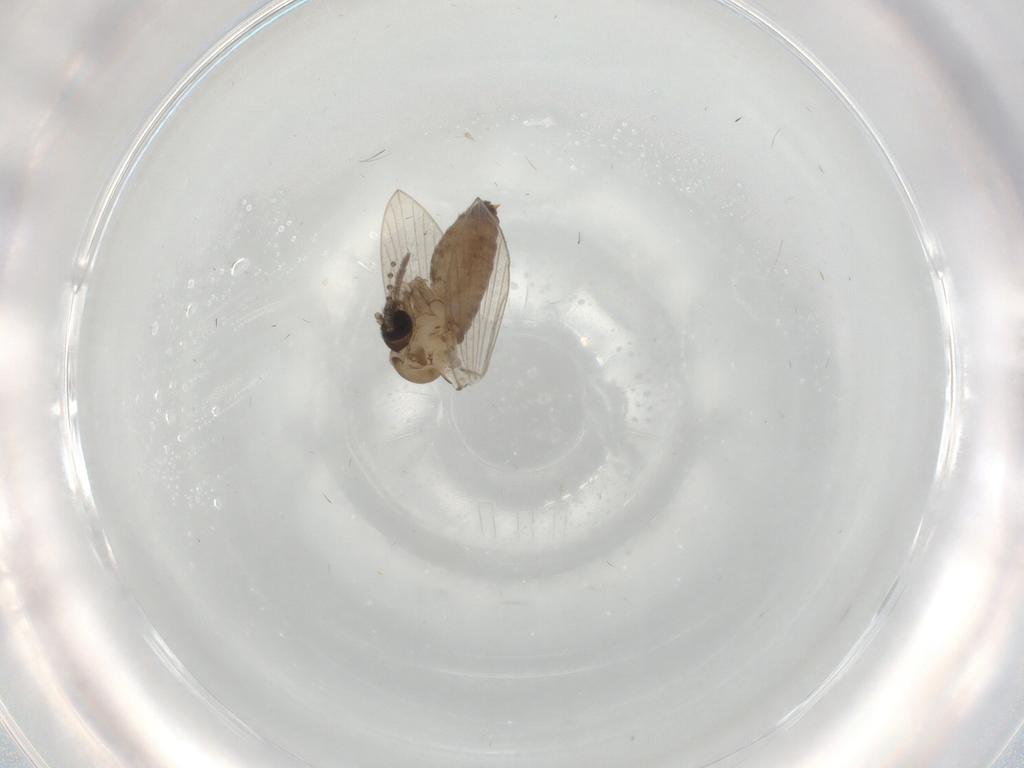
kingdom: Animalia
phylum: Arthropoda
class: Insecta
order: Diptera
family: Psychodidae
